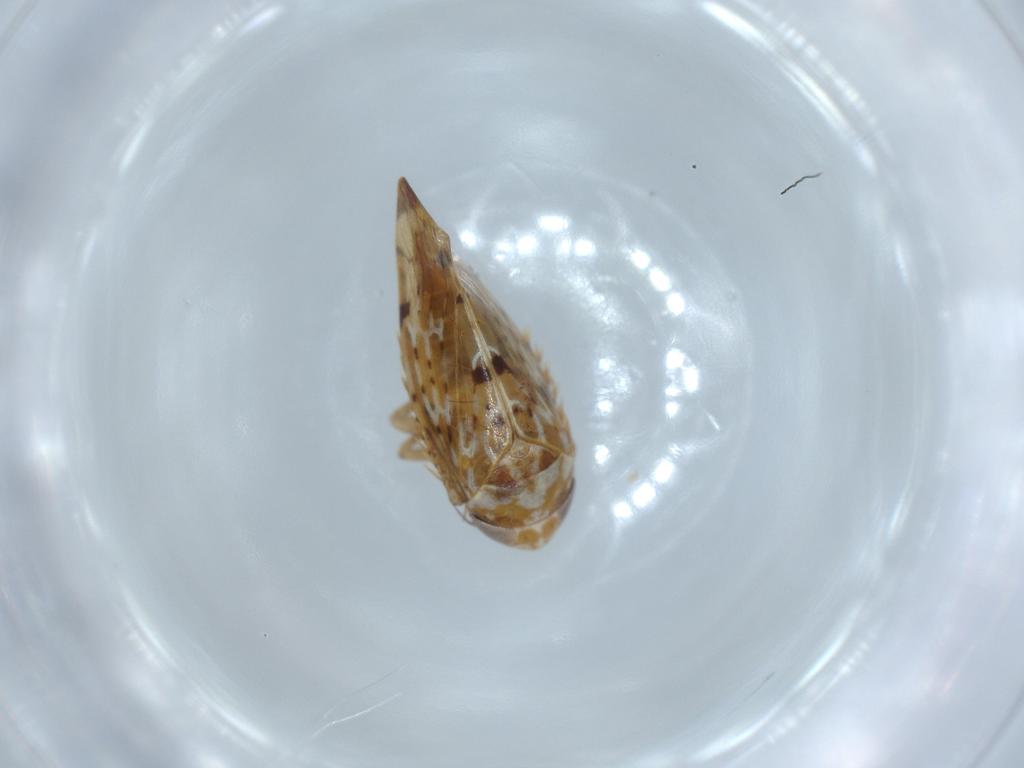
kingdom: Animalia
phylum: Arthropoda
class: Insecta
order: Hemiptera
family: Cicadellidae
